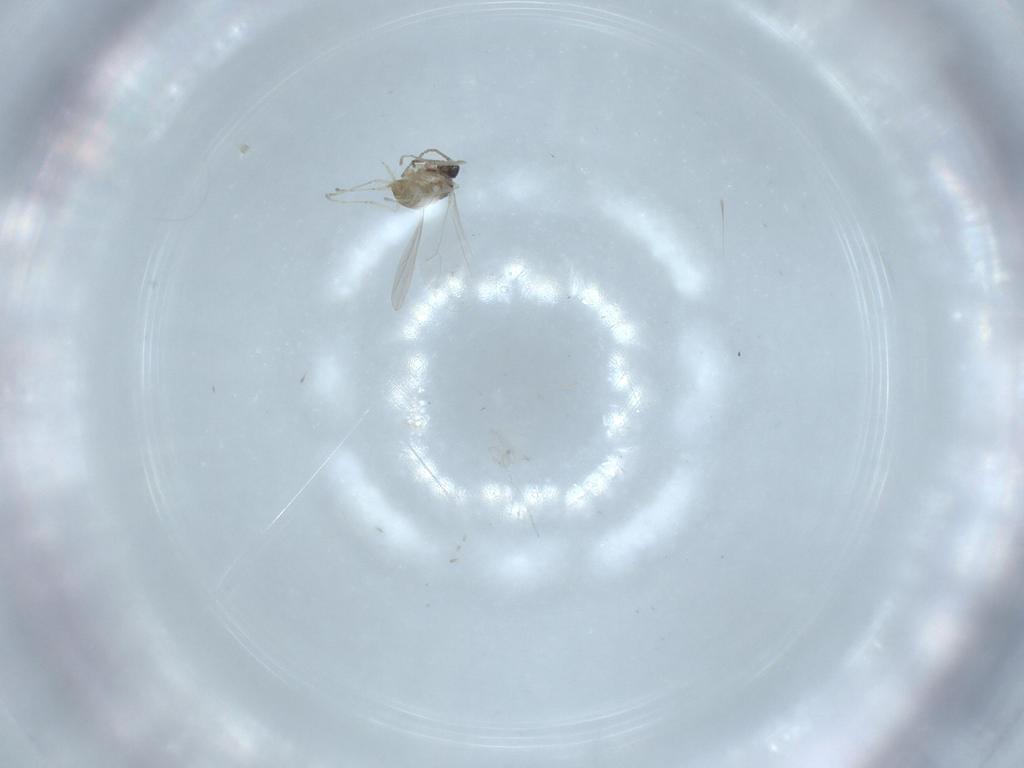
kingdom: Animalia
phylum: Arthropoda
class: Insecta
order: Diptera
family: Cecidomyiidae
